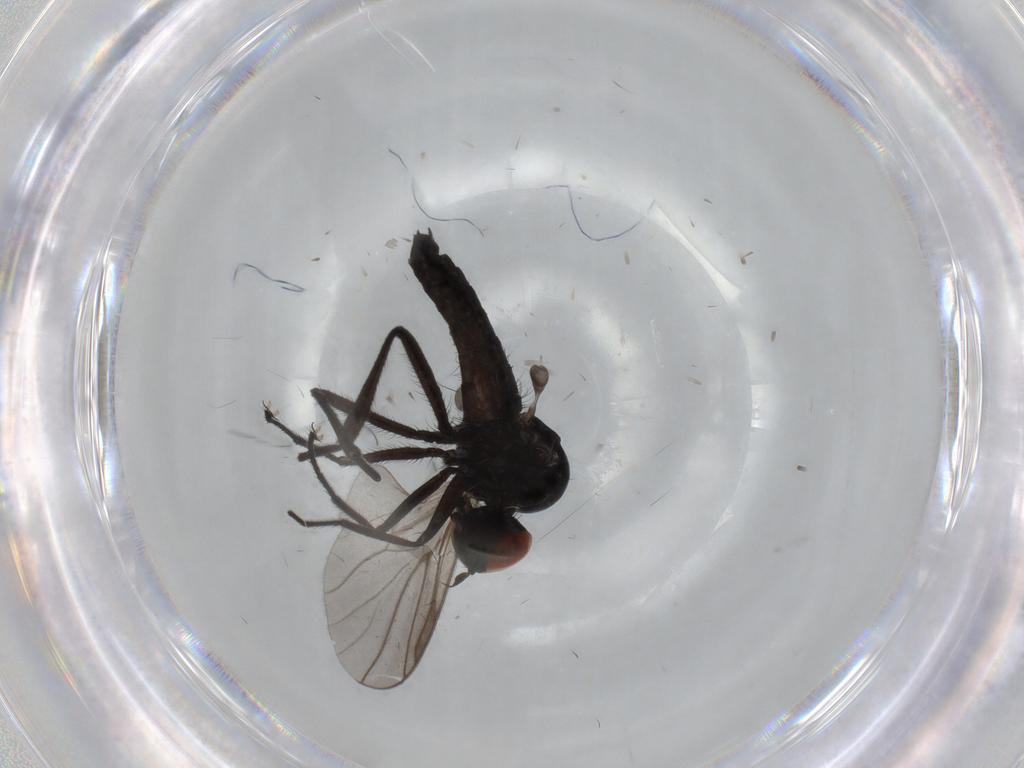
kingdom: Animalia
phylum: Arthropoda
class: Insecta
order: Diptera
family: Hybotidae
